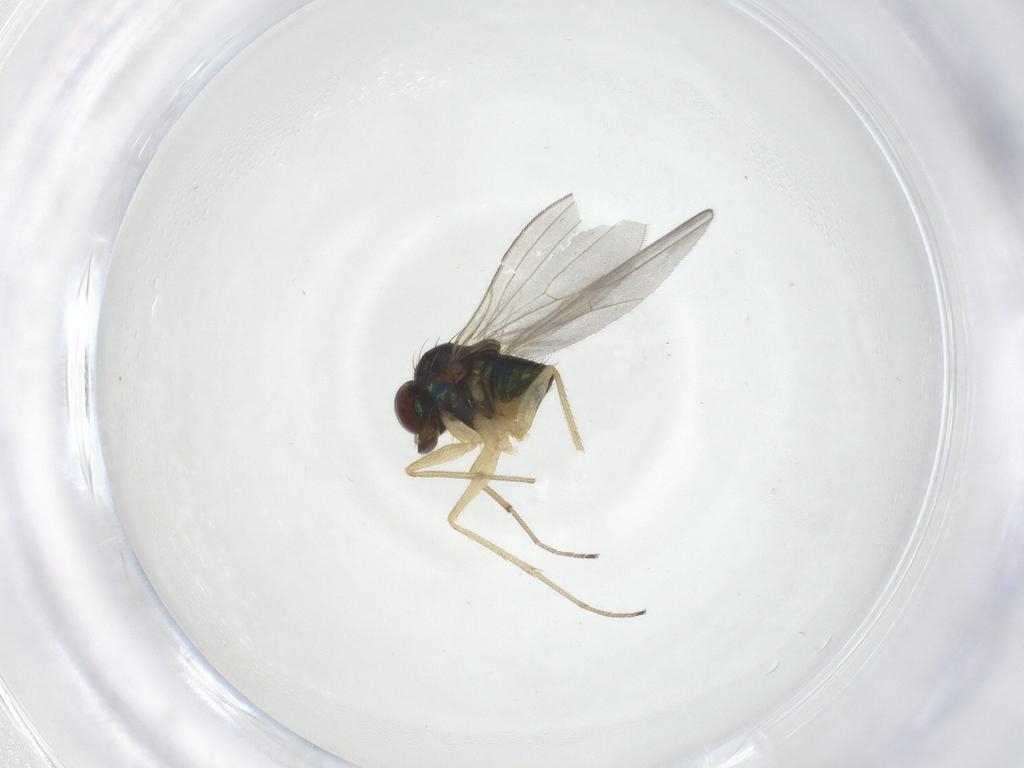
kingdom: Animalia
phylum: Arthropoda
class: Insecta
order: Diptera
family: Dolichopodidae
